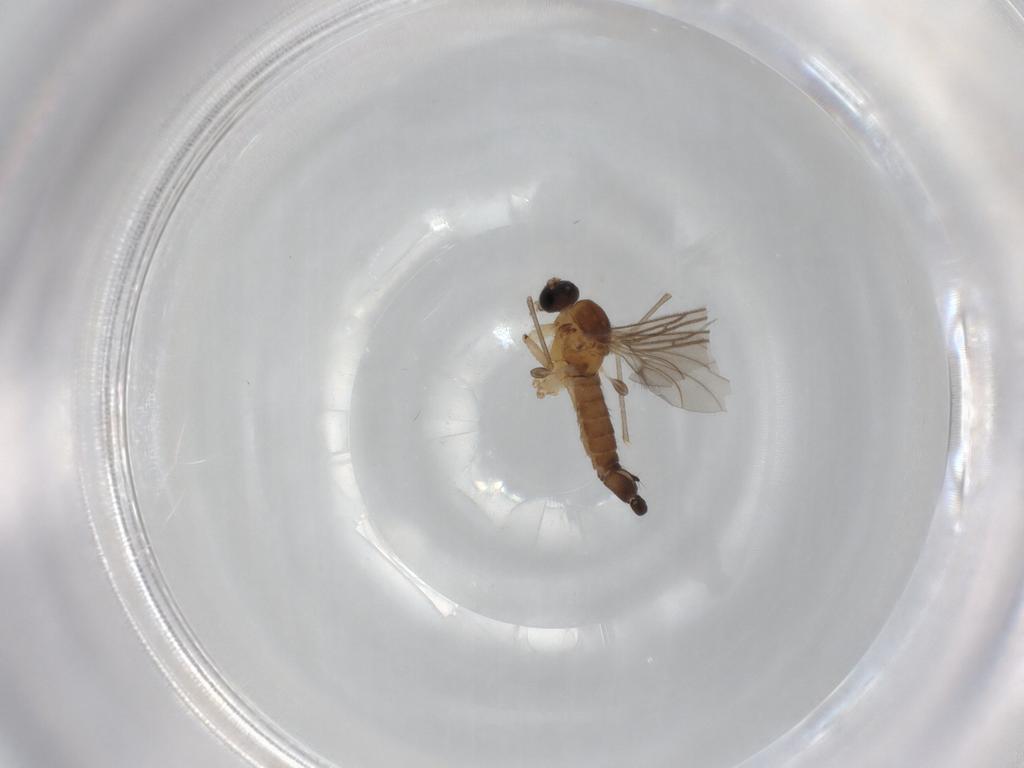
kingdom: Animalia
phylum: Arthropoda
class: Insecta
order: Diptera
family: Sciaridae
